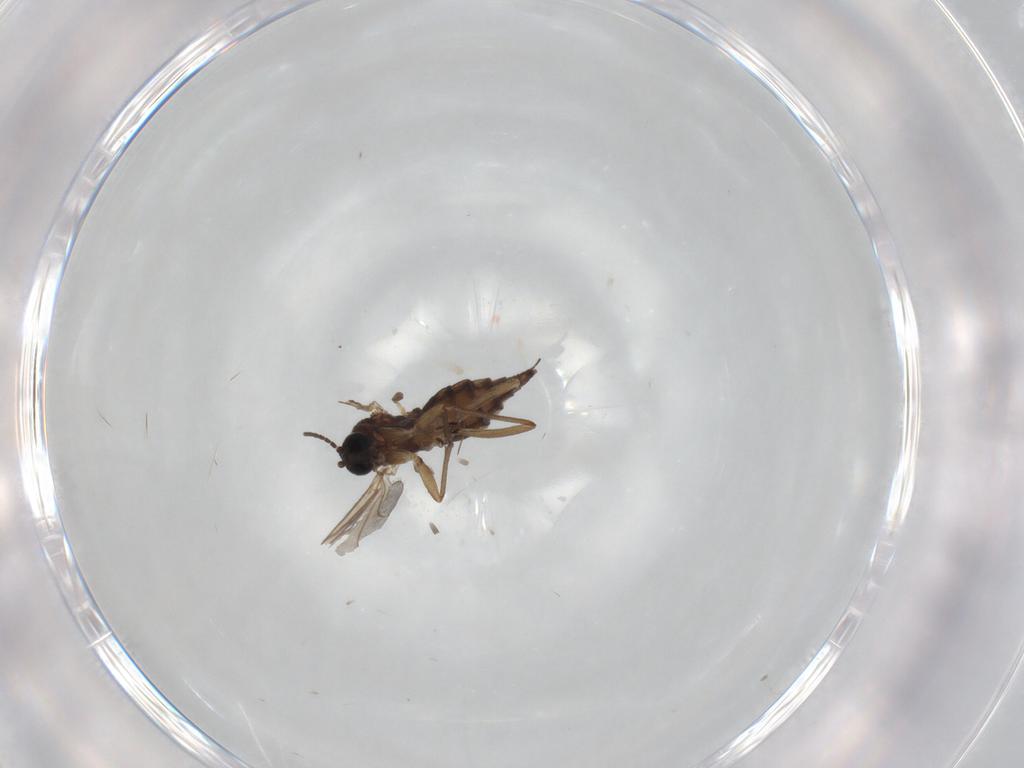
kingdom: Animalia
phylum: Arthropoda
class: Insecta
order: Diptera
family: Sciaridae
